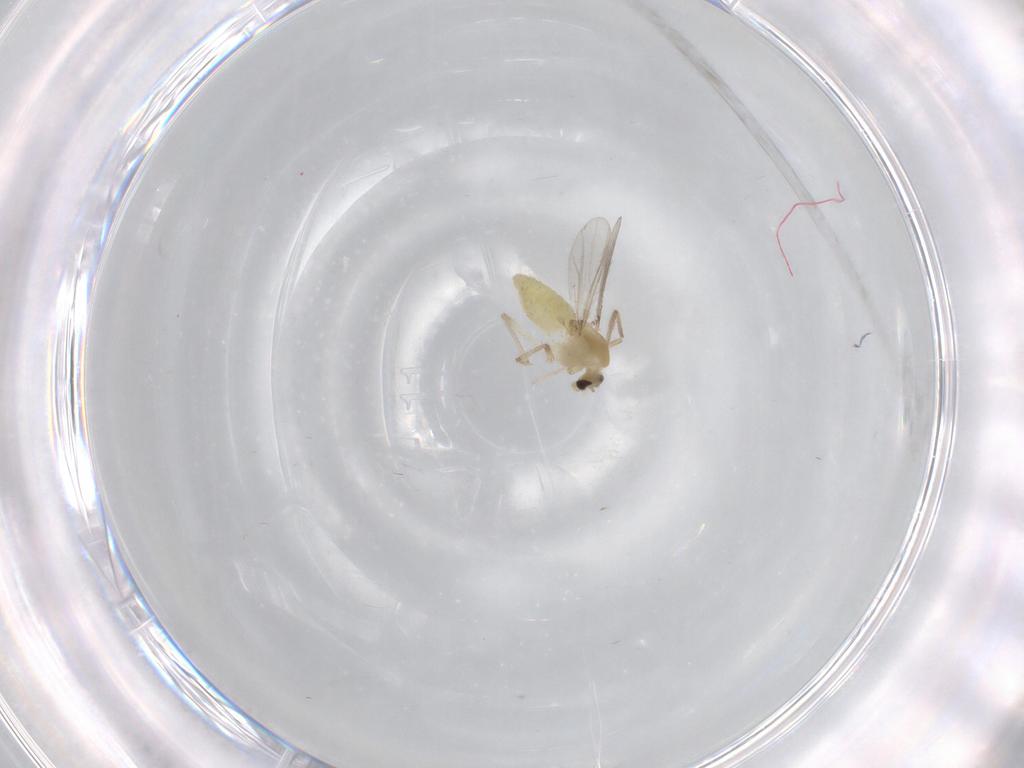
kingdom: Animalia
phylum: Arthropoda
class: Insecta
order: Diptera
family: Chironomidae
